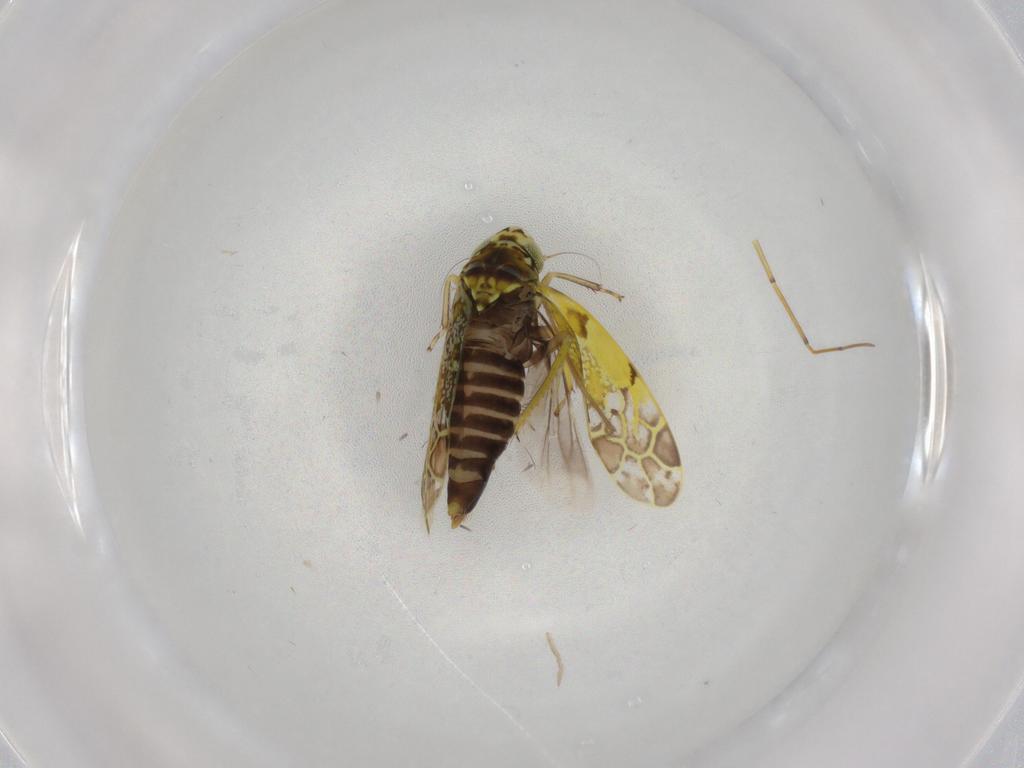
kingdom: Animalia
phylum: Arthropoda
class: Insecta
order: Hemiptera
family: Cicadellidae
